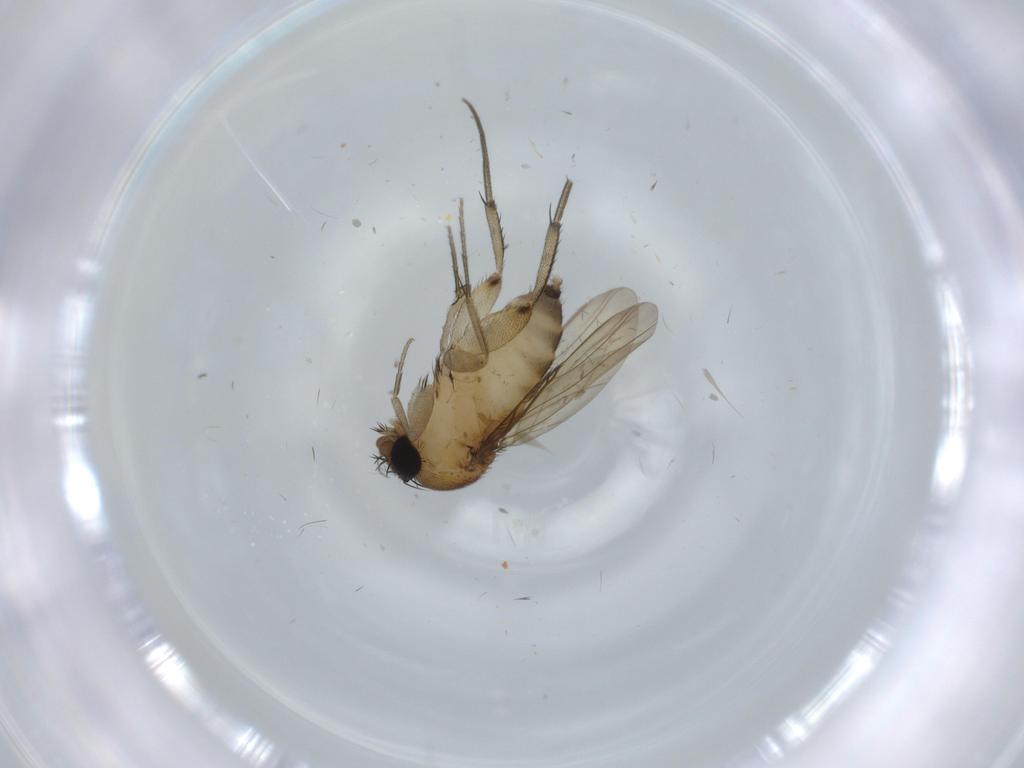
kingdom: Animalia
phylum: Arthropoda
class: Insecta
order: Diptera
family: Phoridae
